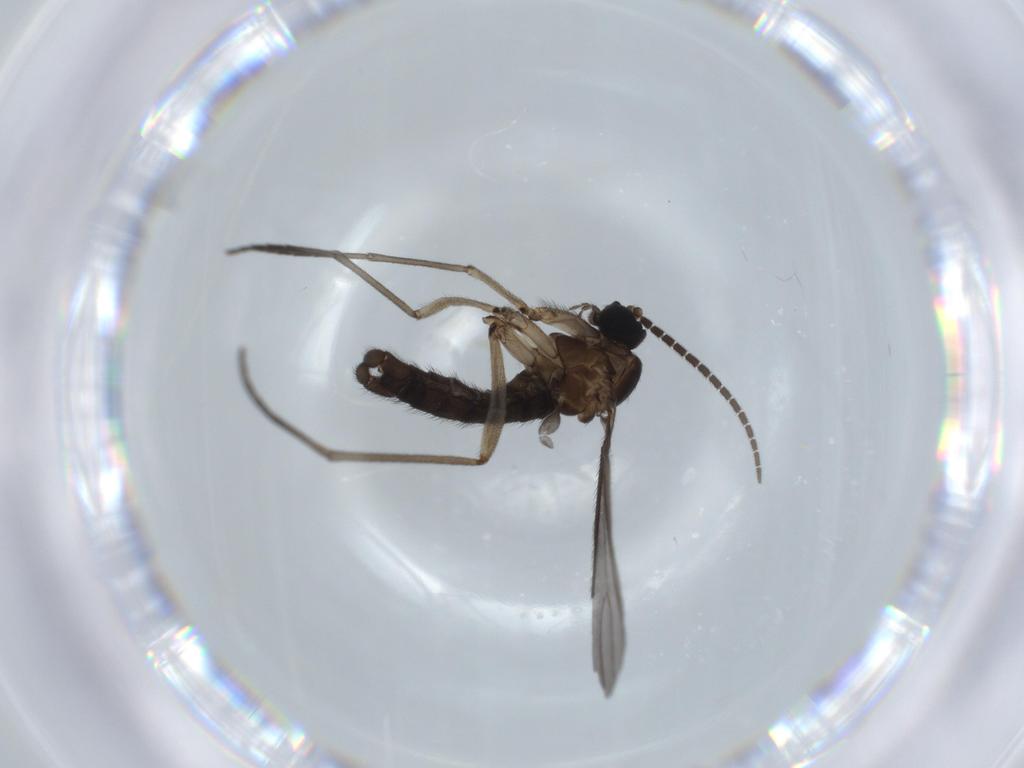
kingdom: Animalia
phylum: Arthropoda
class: Insecta
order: Diptera
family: Sciaridae
